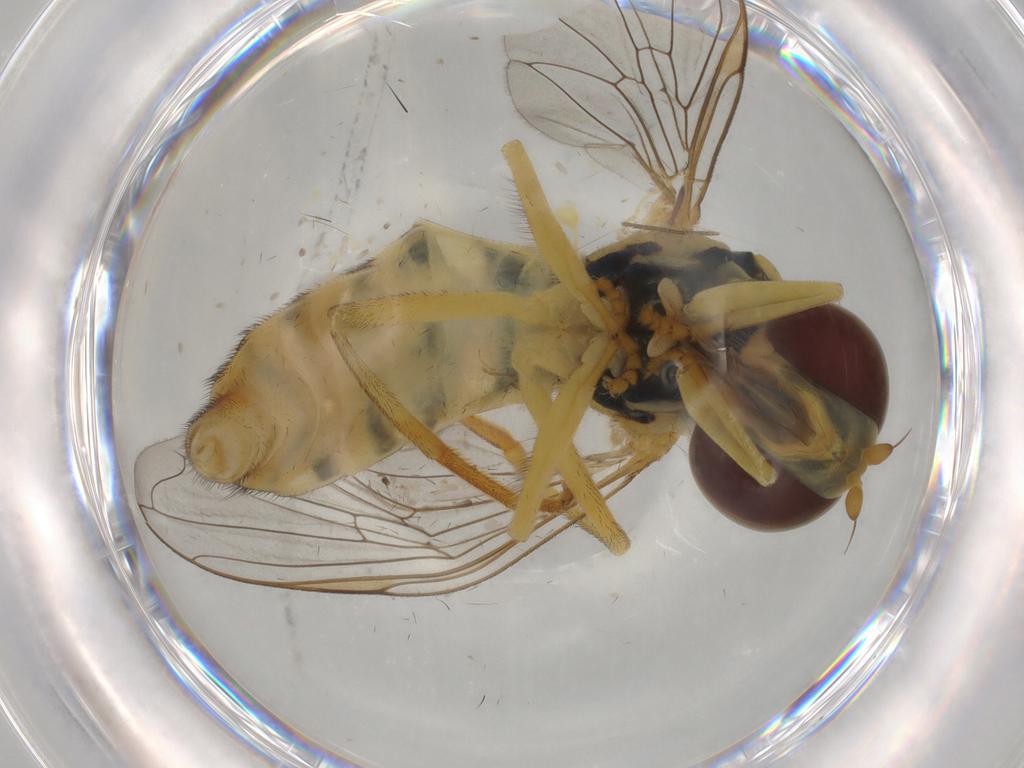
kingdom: Animalia
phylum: Arthropoda
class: Insecta
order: Diptera
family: Ephydridae
